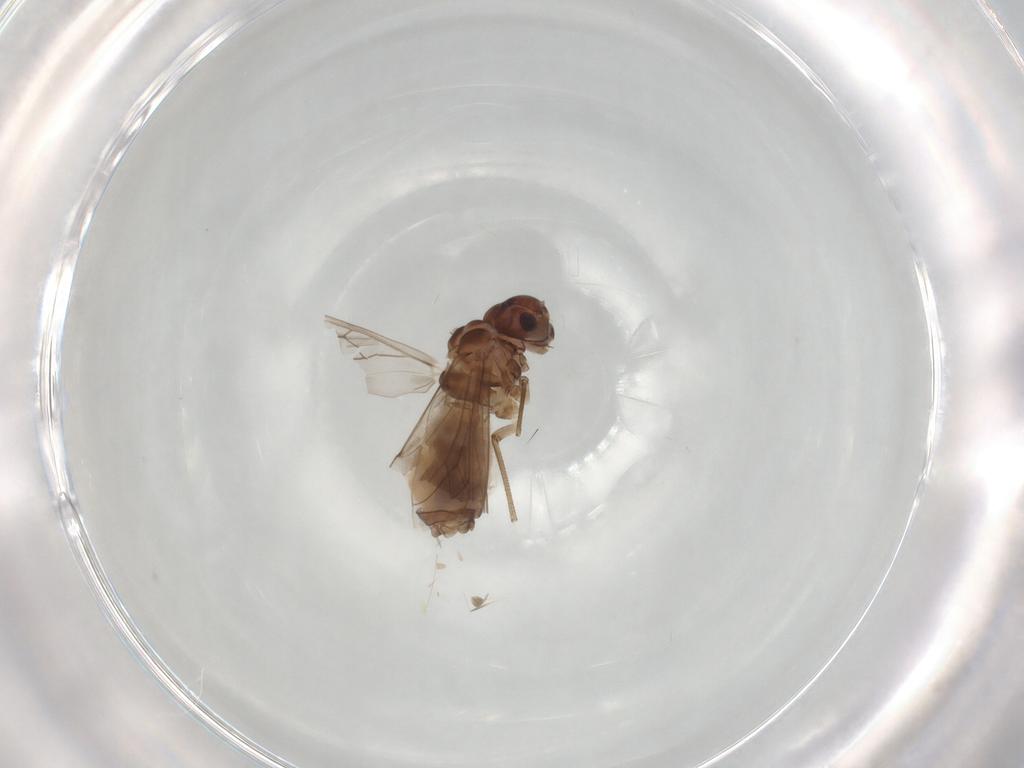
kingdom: Animalia
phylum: Arthropoda
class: Insecta
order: Psocodea
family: Peripsocidae
